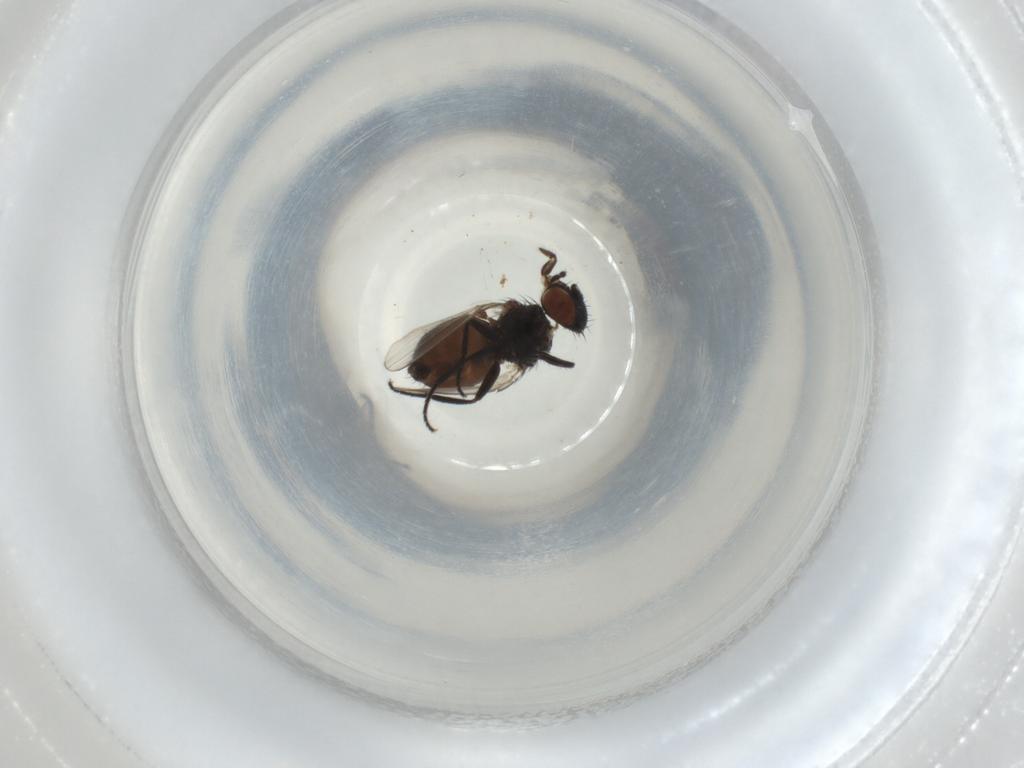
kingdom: Animalia
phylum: Arthropoda
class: Insecta
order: Diptera
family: Milichiidae
